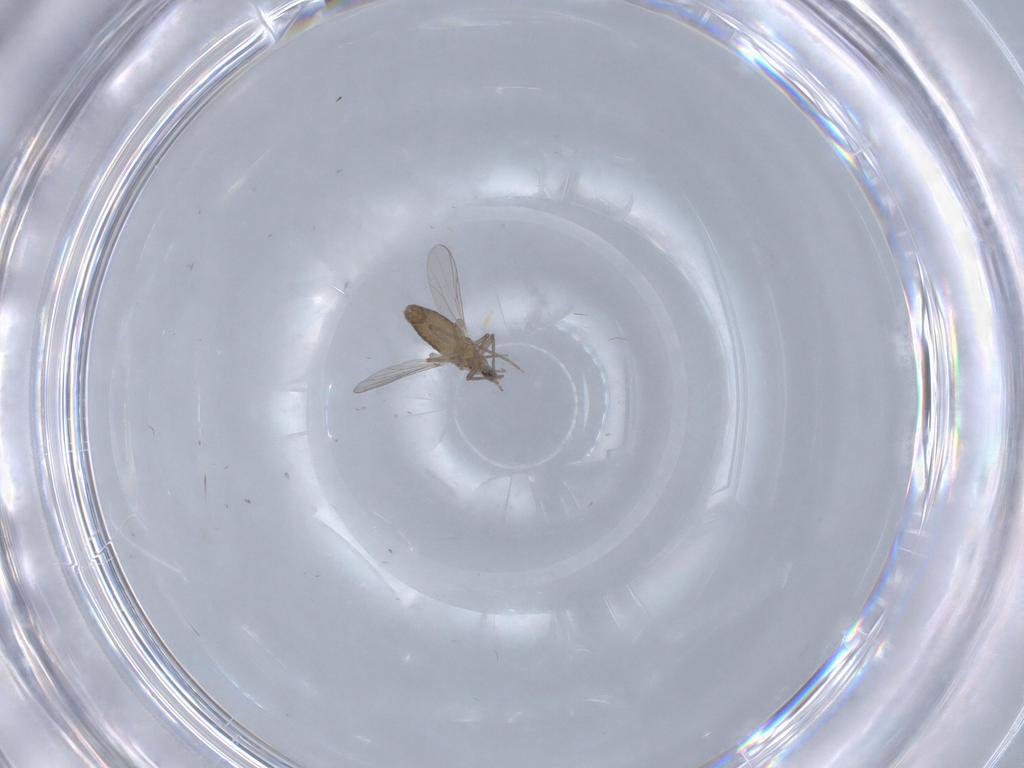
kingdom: Animalia
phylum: Arthropoda
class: Insecta
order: Diptera
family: Chironomidae
